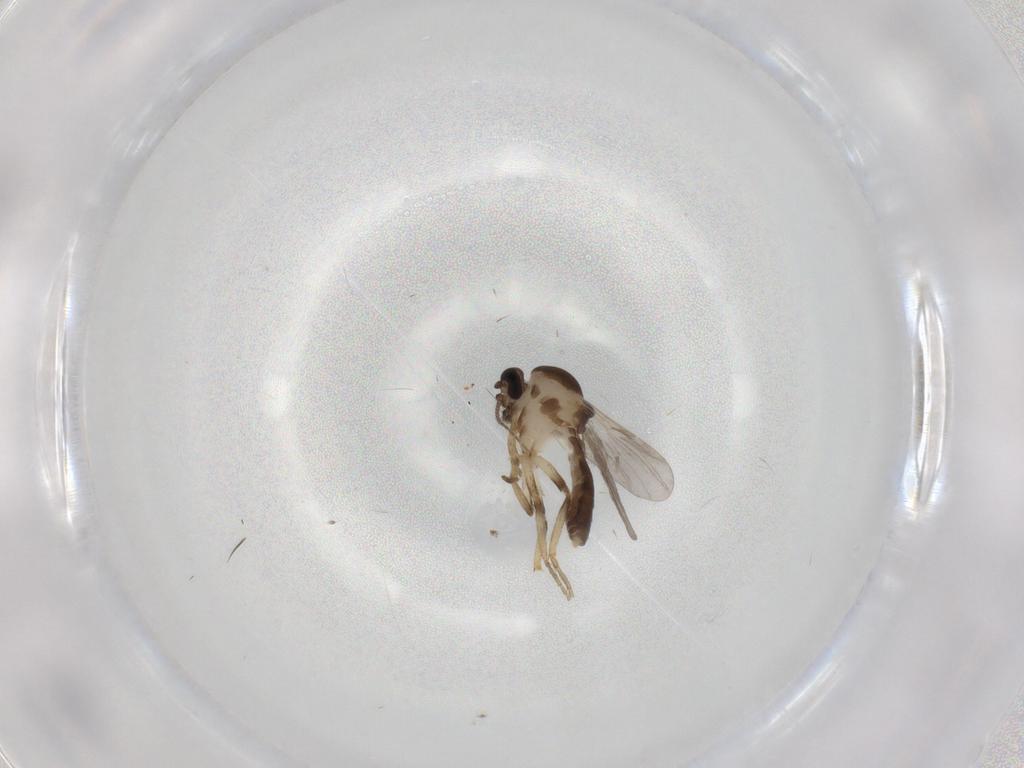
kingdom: Animalia
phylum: Arthropoda
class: Insecta
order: Diptera
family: Ceratopogonidae
